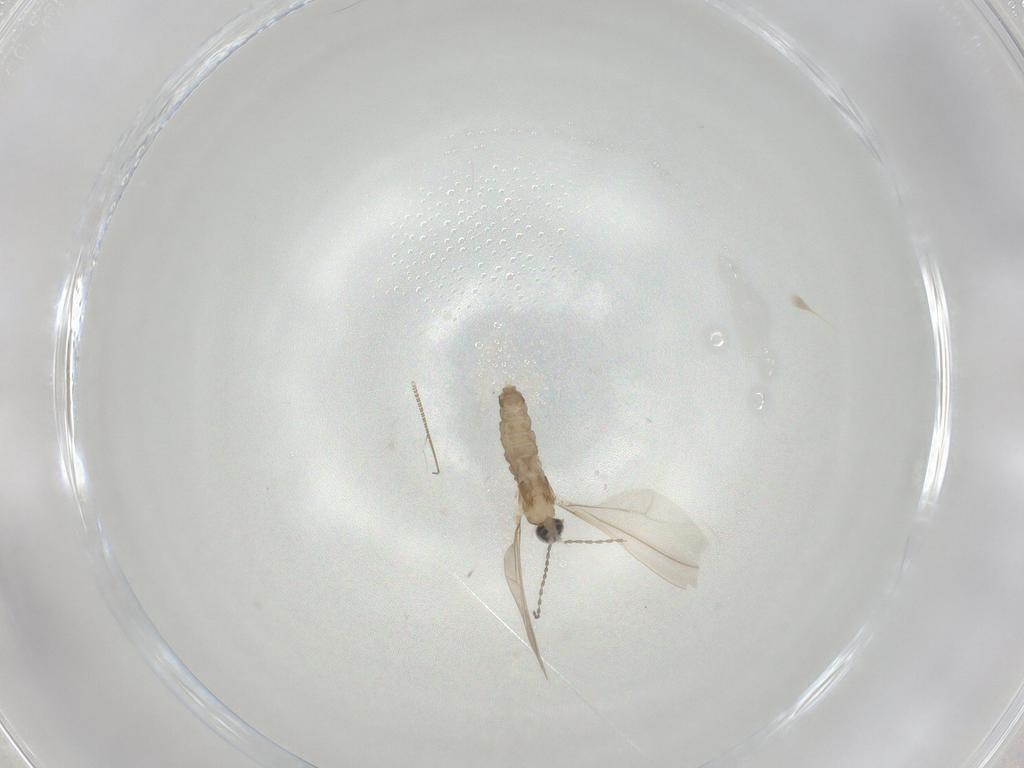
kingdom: Animalia
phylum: Arthropoda
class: Insecta
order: Diptera
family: Cecidomyiidae
